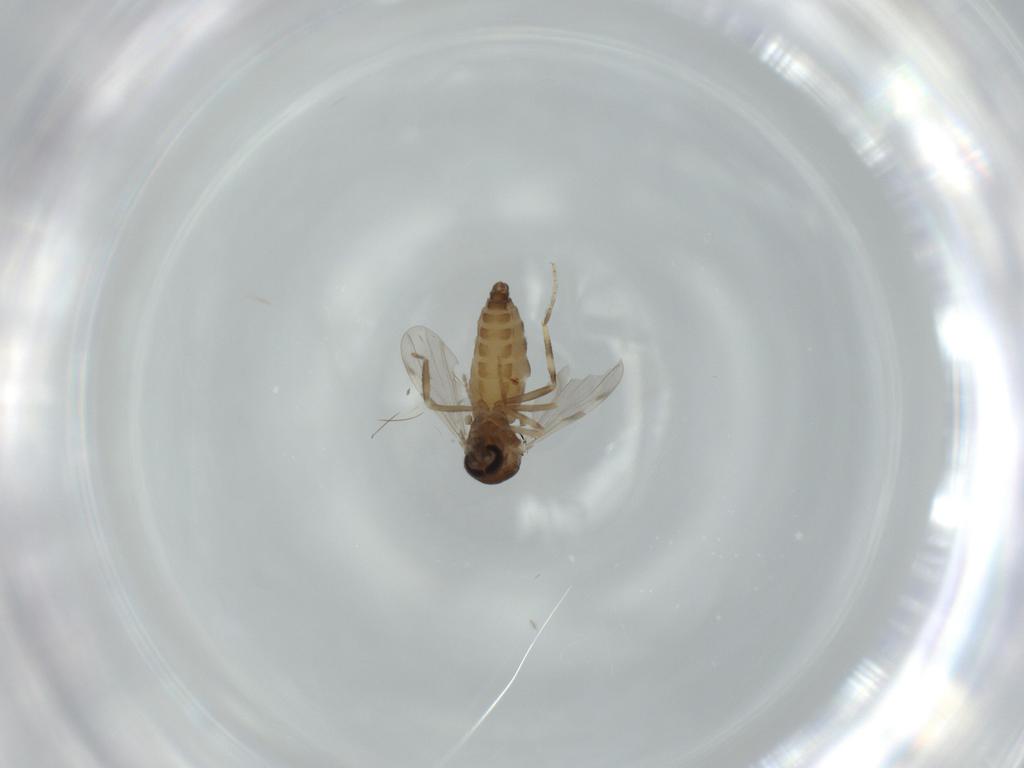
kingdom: Animalia
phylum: Arthropoda
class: Insecta
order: Diptera
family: Ceratopogonidae
